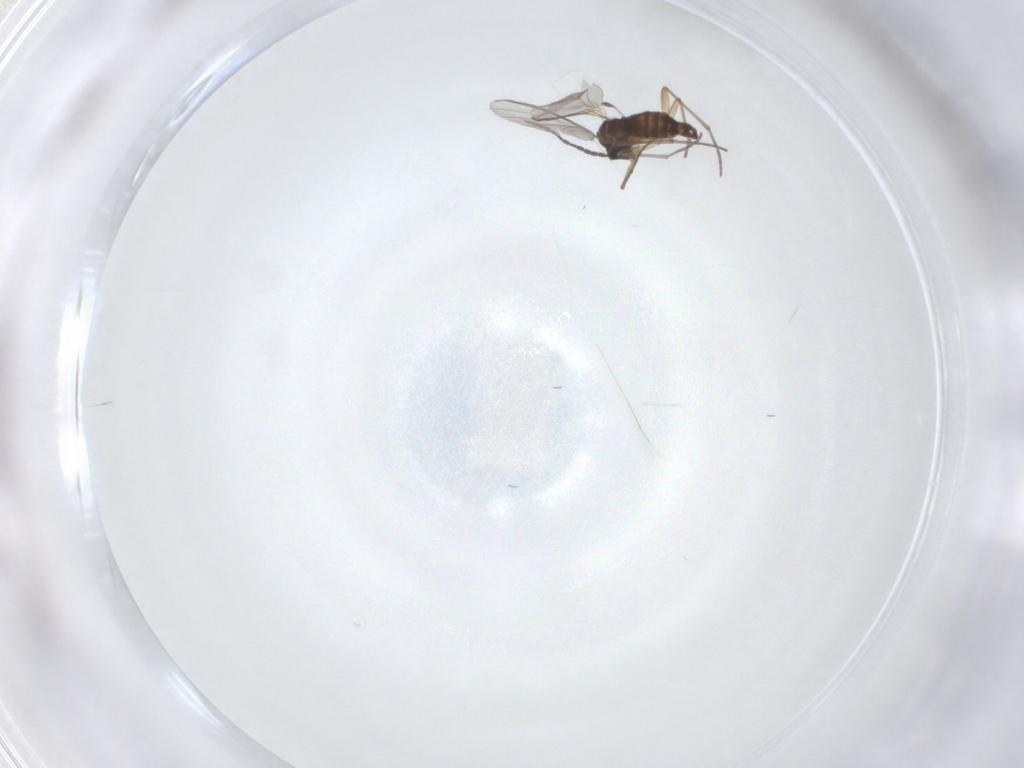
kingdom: Animalia
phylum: Arthropoda
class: Insecta
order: Diptera
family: Sciaridae
